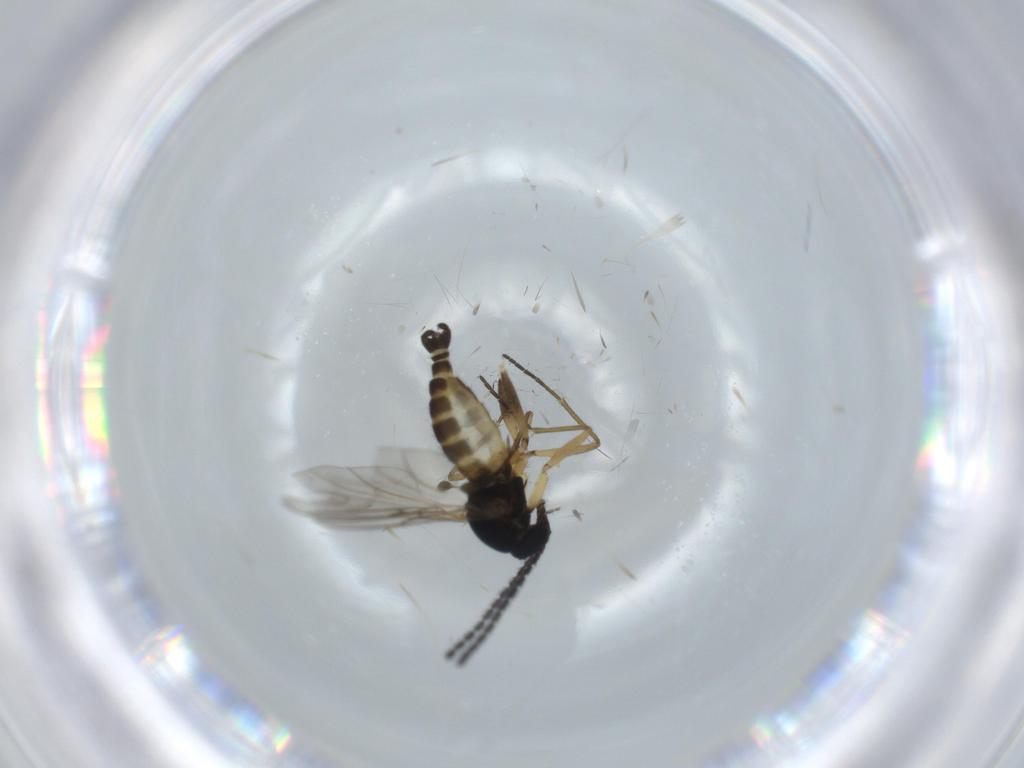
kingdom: Animalia
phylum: Arthropoda
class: Insecta
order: Diptera
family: Sciaridae
